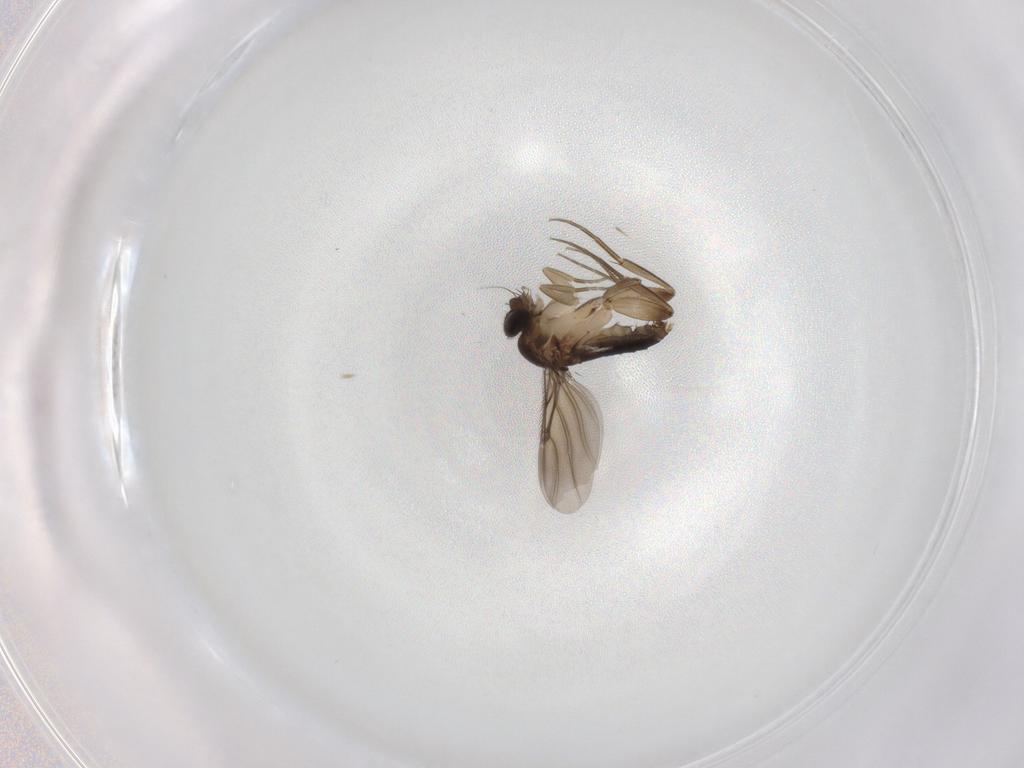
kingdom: Animalia
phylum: Arthropoda
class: Insecta
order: Diptera
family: Phoridae
